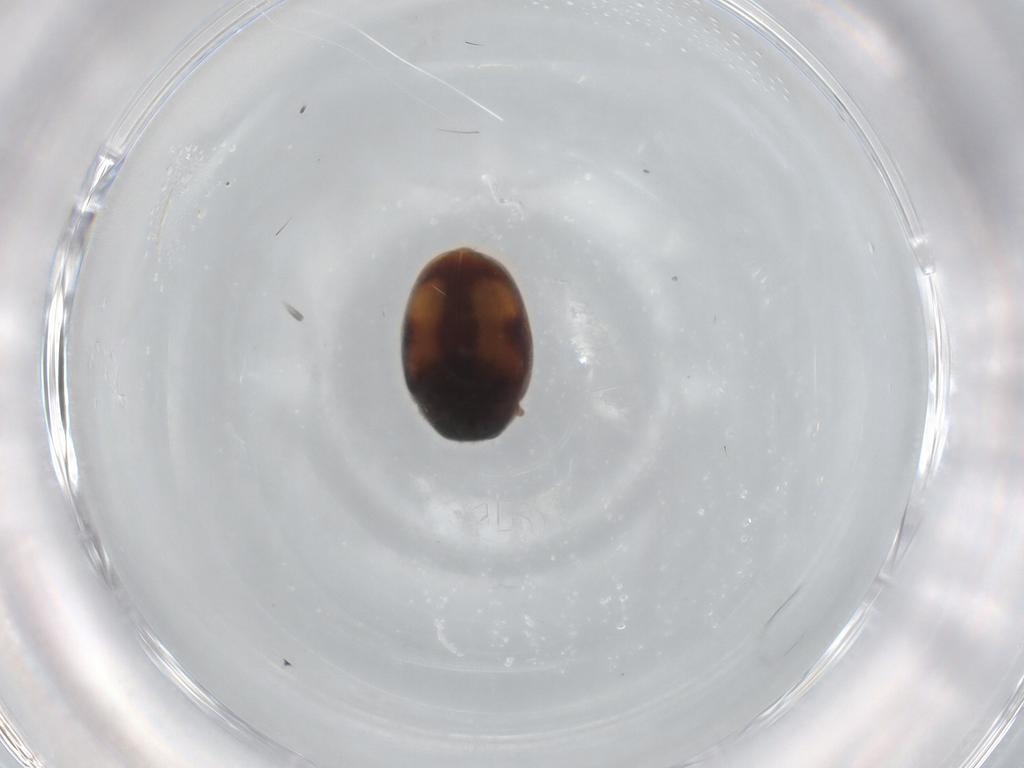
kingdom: Animalia
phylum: Arthropoda
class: Insecta
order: Coleoptera
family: Coccinellidae
